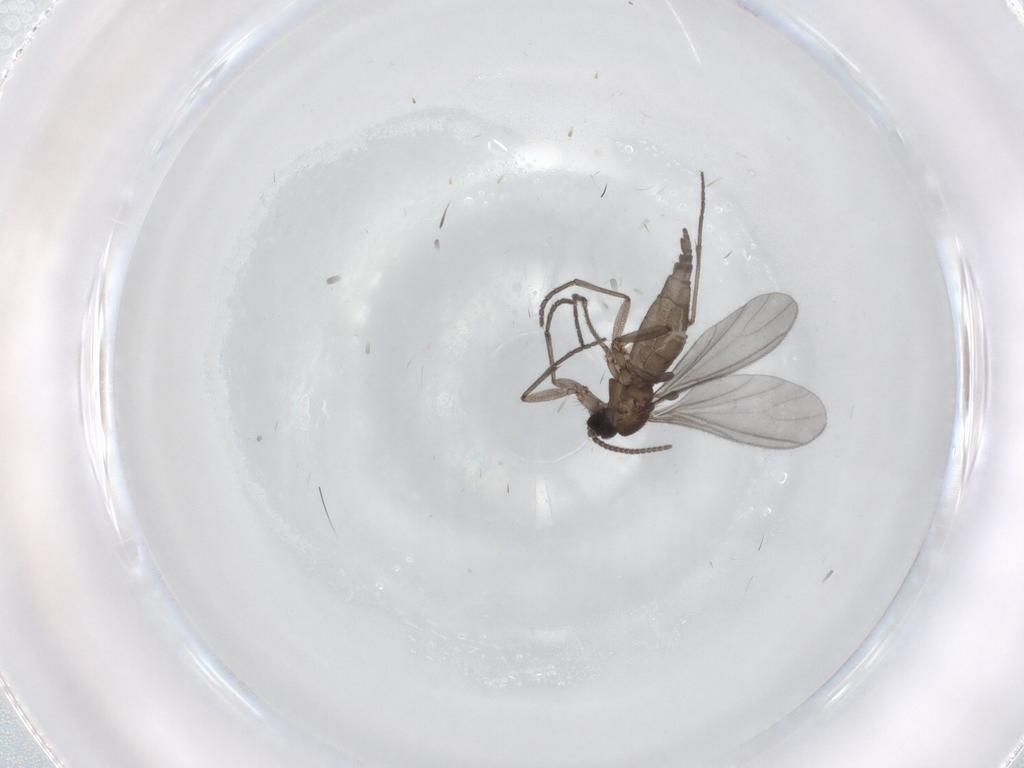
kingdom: Animalia
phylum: Arthropoda
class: Insecta
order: Diptera
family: Sciaridae
